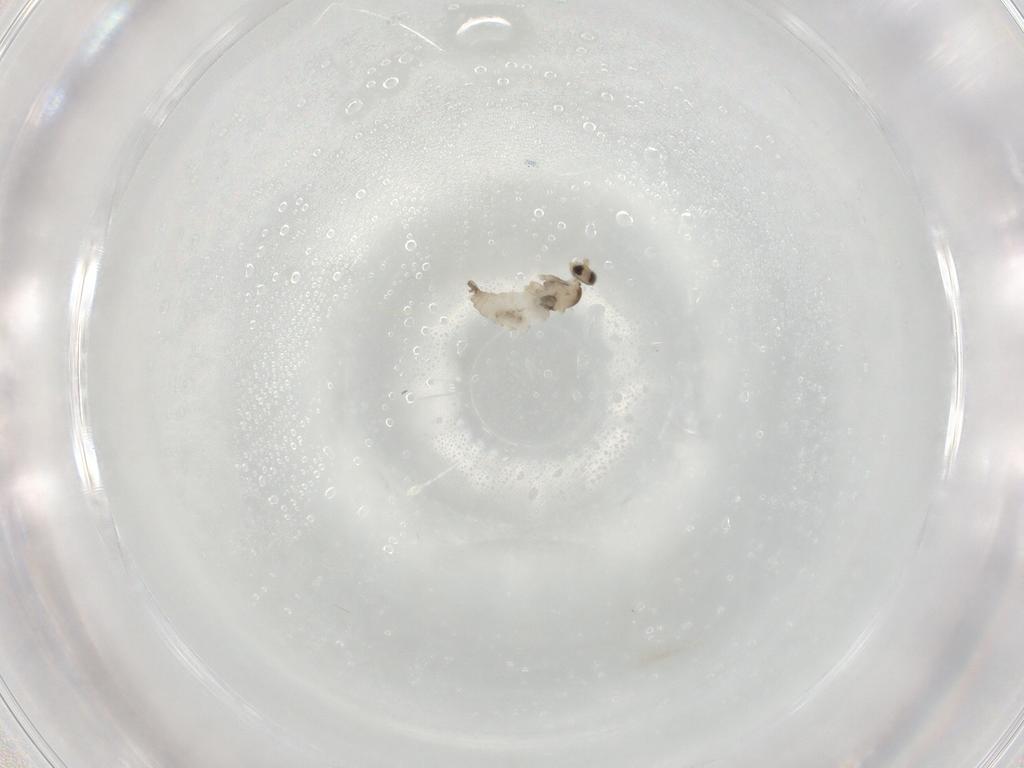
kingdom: Animalia
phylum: Arthropoda
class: Insecta
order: Diptera
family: Cecidomyiidae
